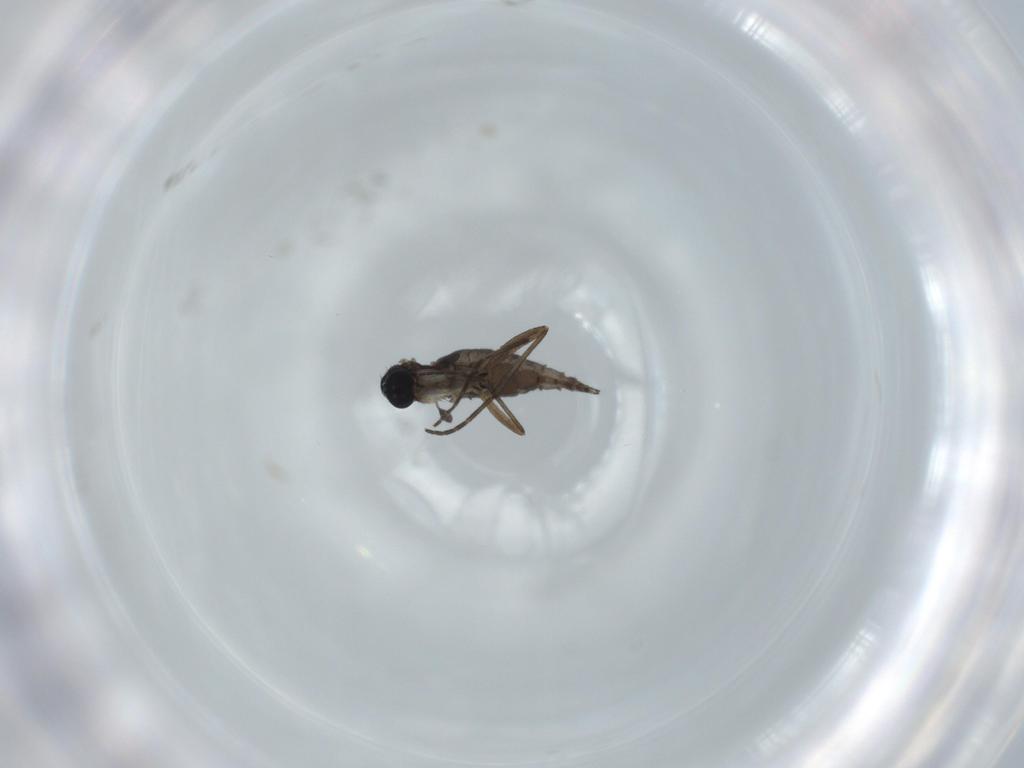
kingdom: Animalia
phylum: Arthropoda
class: Insecta
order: Diptera
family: Sciaridae
